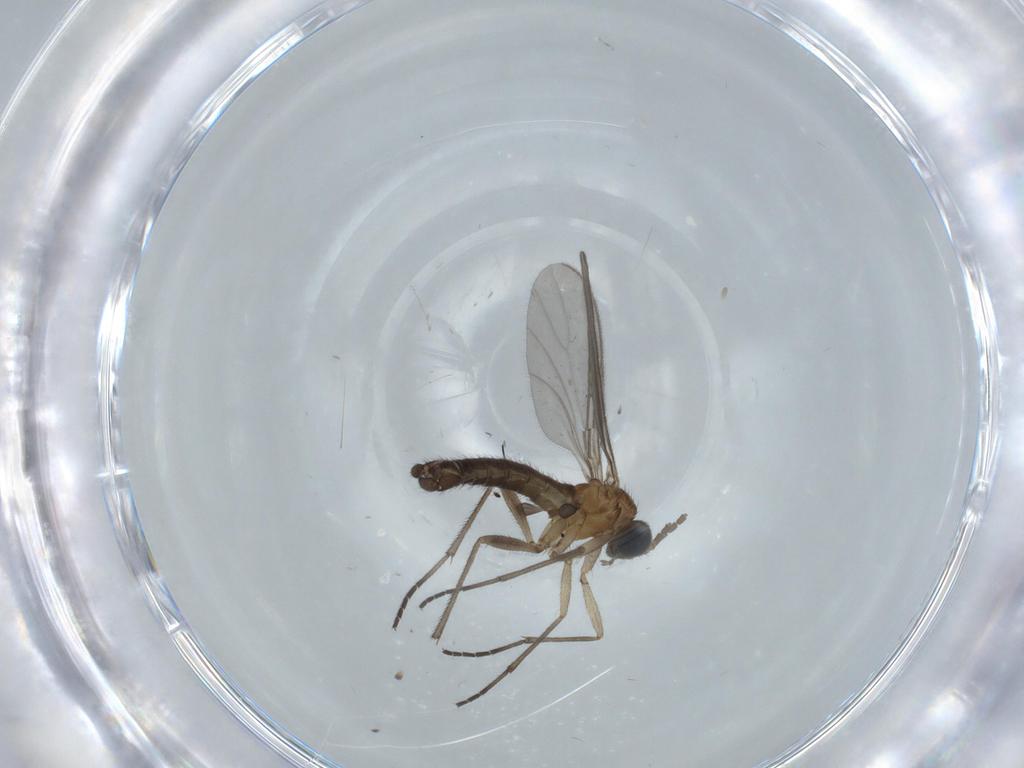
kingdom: Animalia
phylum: Arthropoda
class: Insecta
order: Diptera
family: Sciaridae
